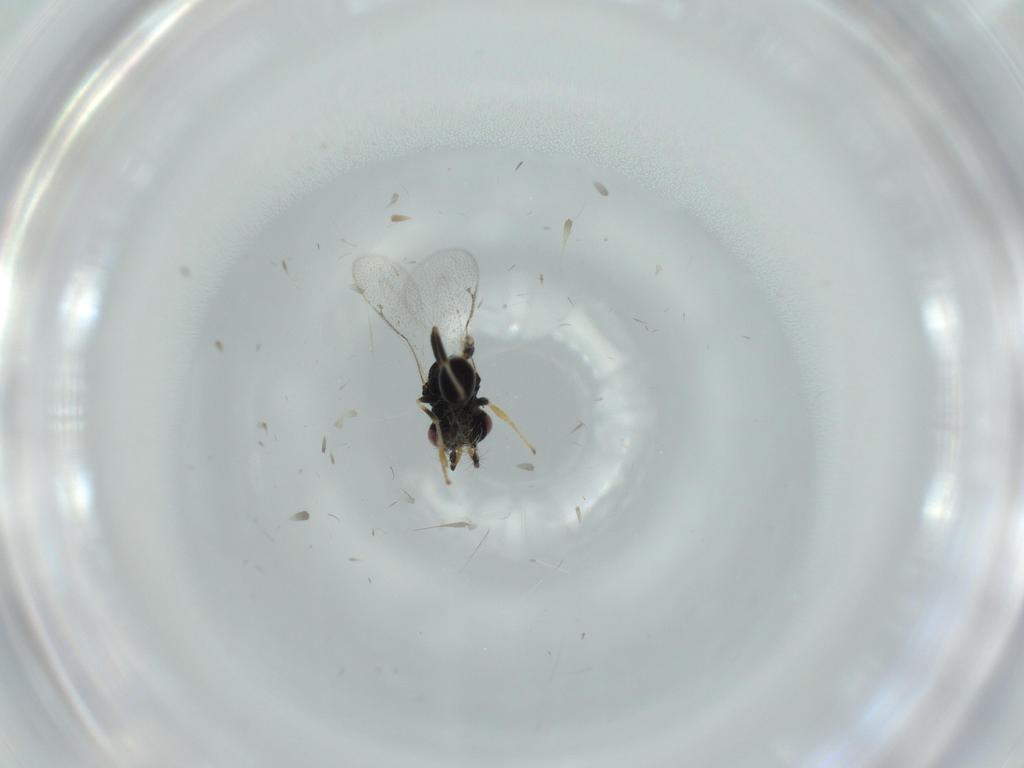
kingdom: Animalia
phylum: Arthropoda
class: Insecta
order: Hymenoptera
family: Eurytomidae
